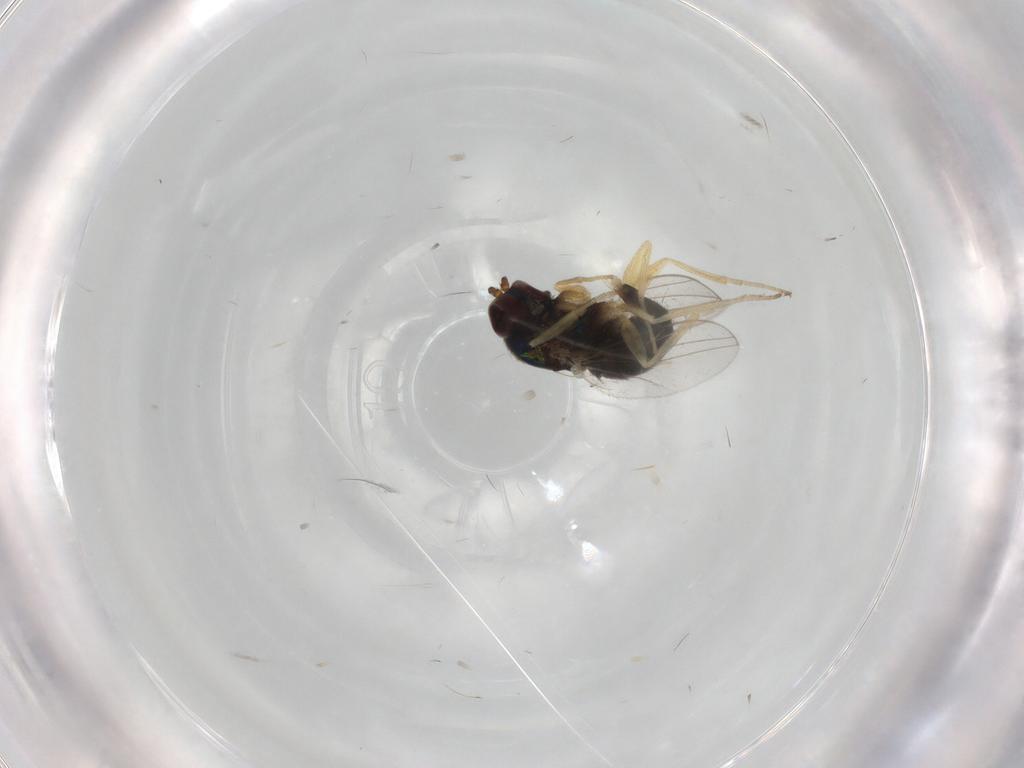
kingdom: Animalia
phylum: Arthropoda
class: Insecta
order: Diptera
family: Dolichopodidae
